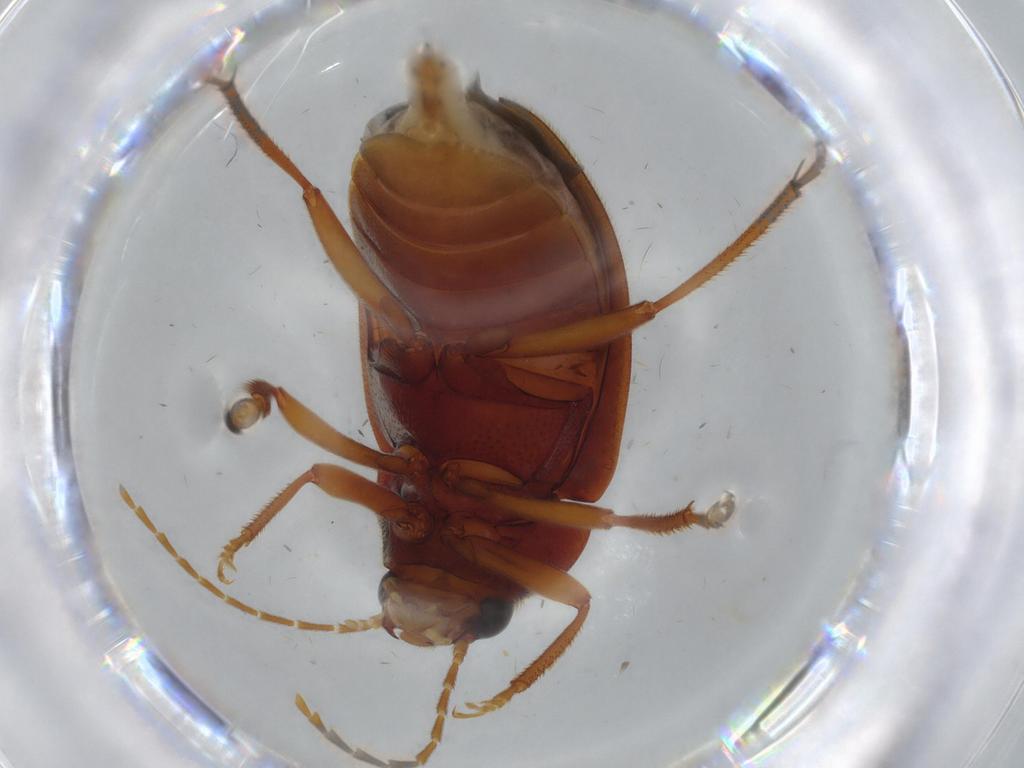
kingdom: Animalia
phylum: Arthropoda
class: Insecta
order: Coleoptera
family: Ptilodactylidae
